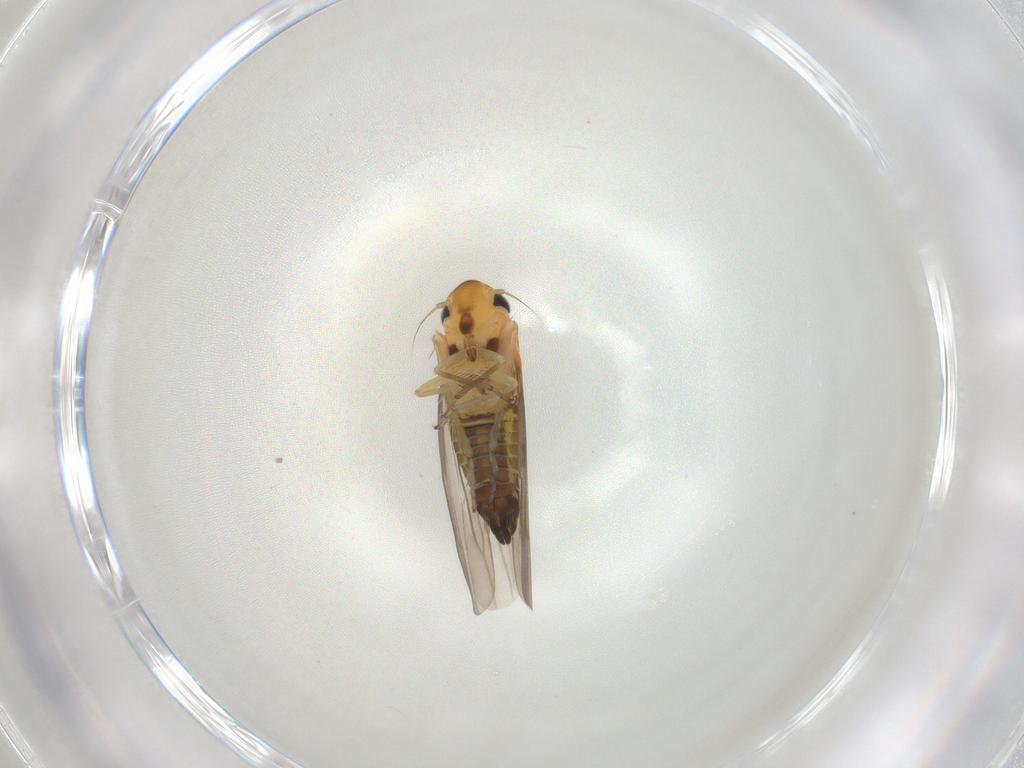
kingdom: Animalia
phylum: Arthropoda
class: Insecta
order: Hemiptera
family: Cicadellidae
